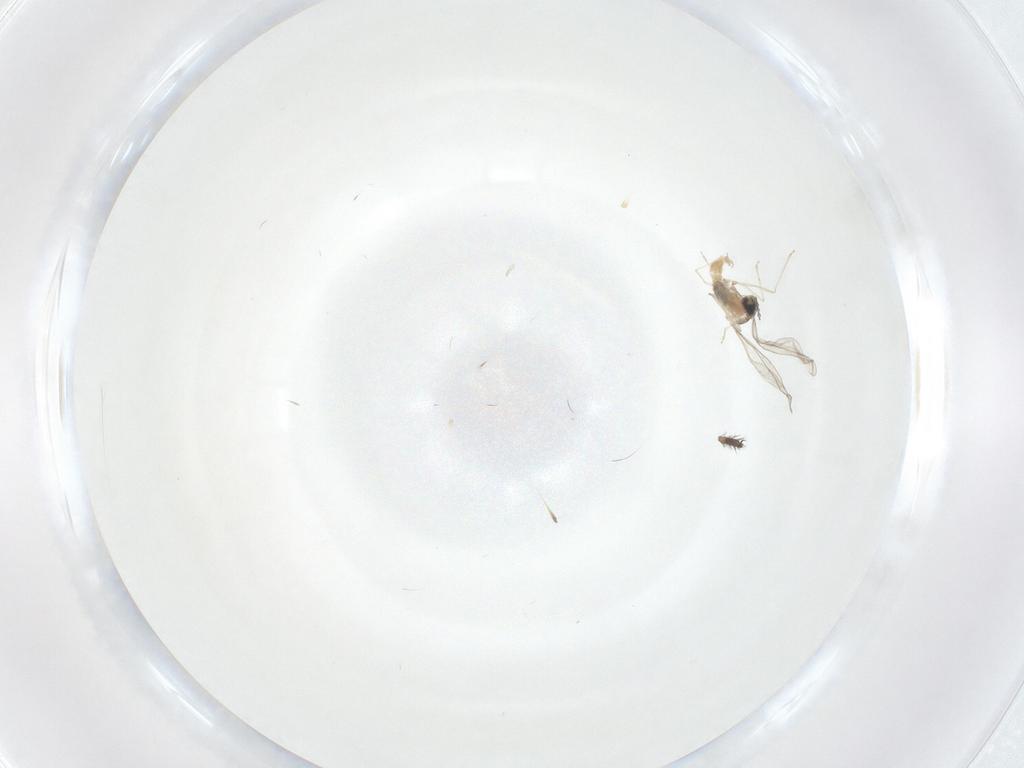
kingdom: Animalia
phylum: Arthropoda
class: Insecta
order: Diptera
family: Limoniidae
